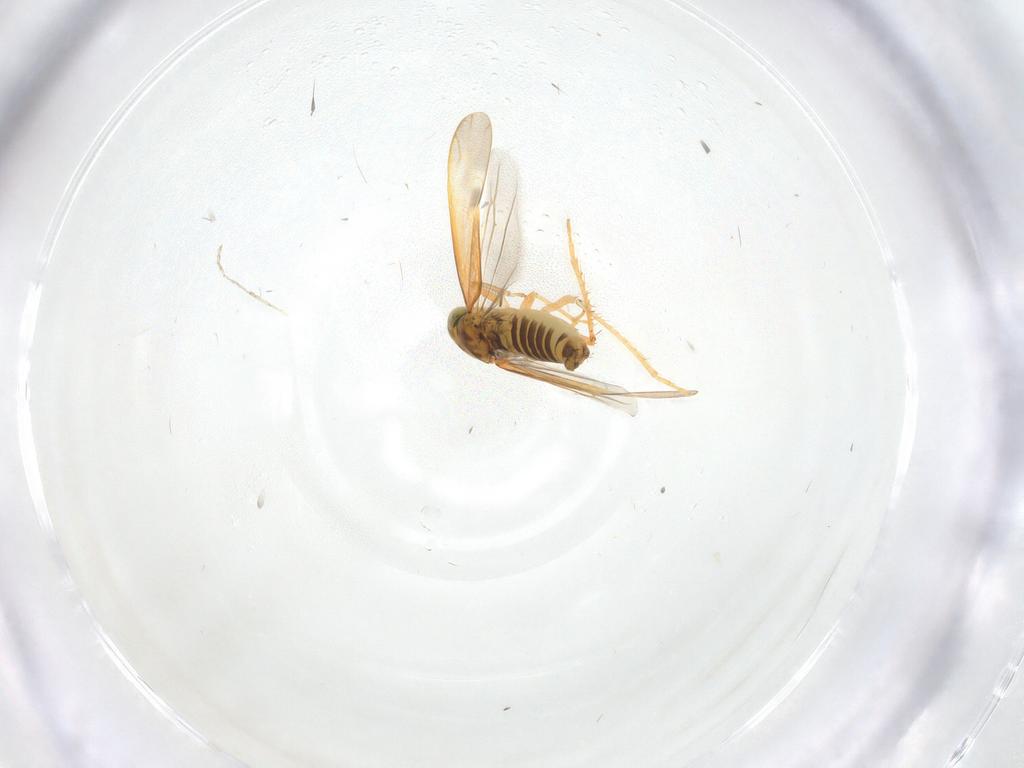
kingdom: Animalia
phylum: Arthropoda
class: Insecta
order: Hemiptera
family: Cicadellidae
